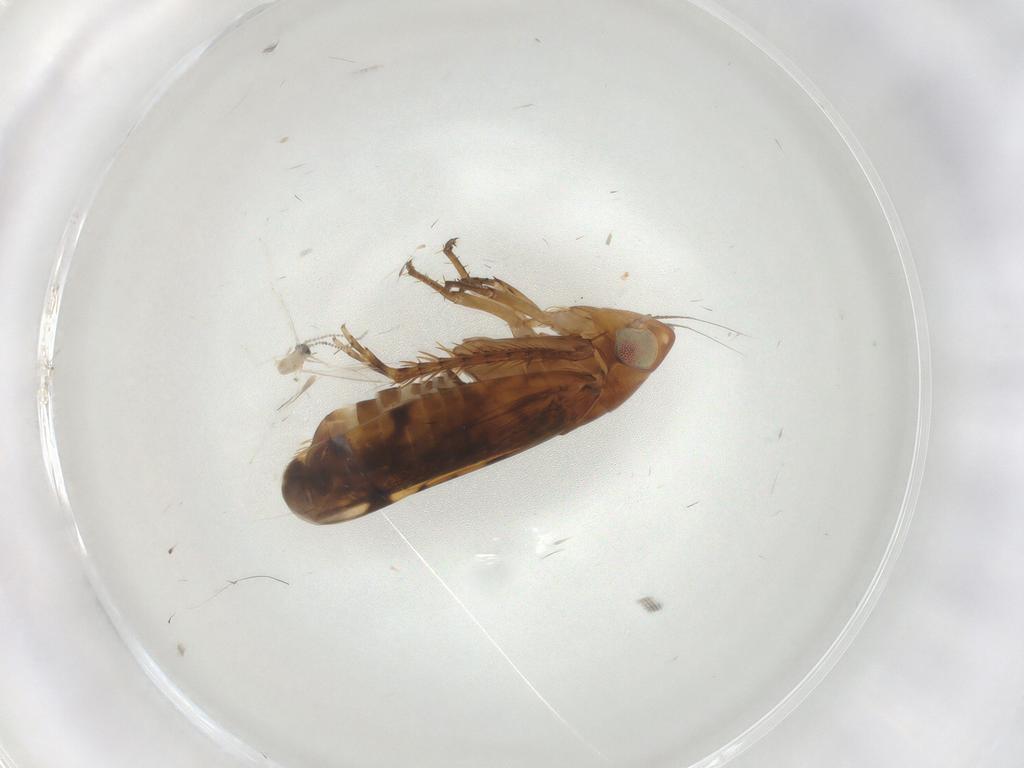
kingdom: Animalia
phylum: Arthropoda
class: Insecta
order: Diptera
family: Cecidomyiidae
